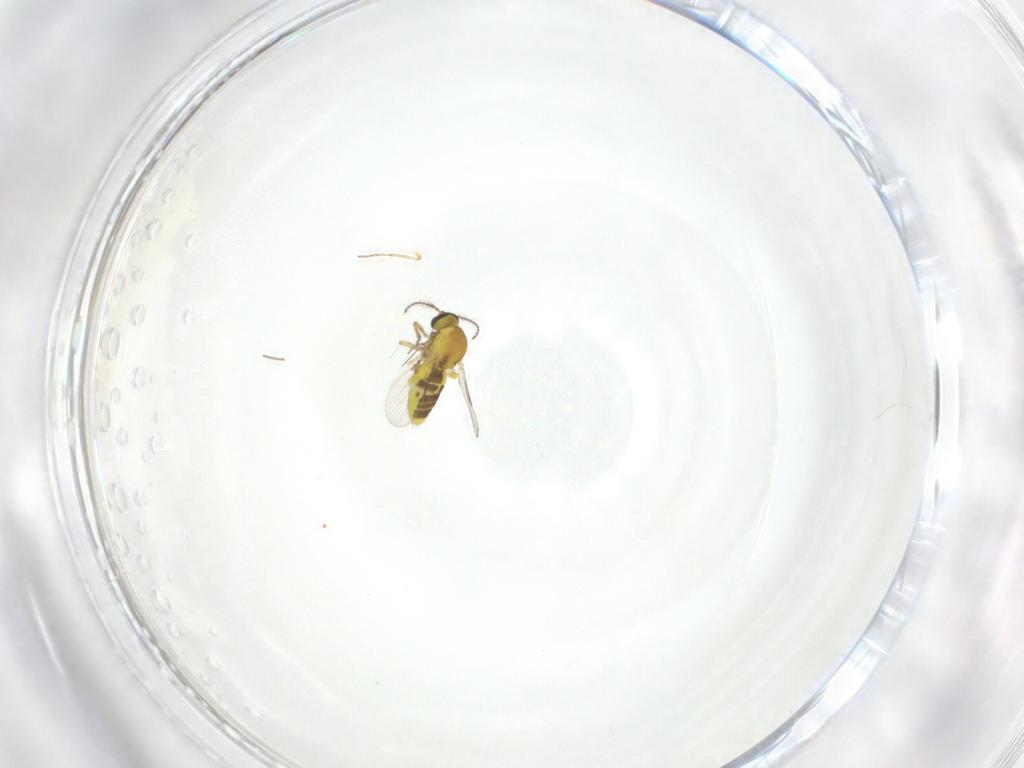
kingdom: Animalia
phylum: Arthropoda
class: Insecta
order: Diptera
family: Ceratopogonidae
